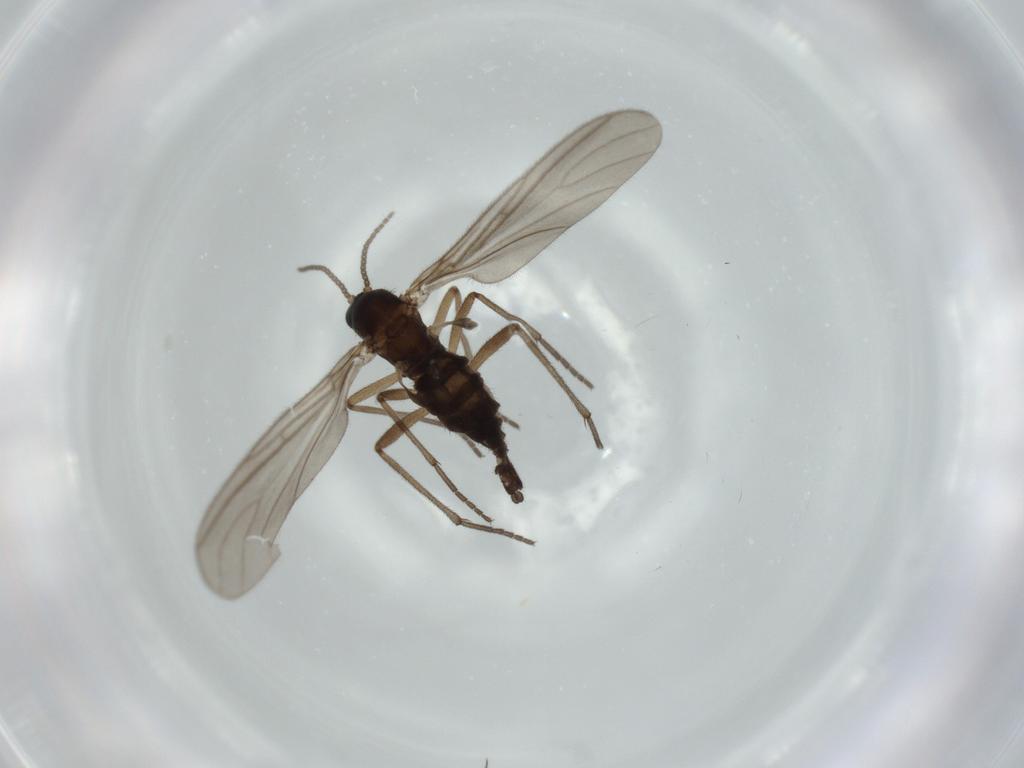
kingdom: Animalia
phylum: Arthropoda
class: Insecta
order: Diptera
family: Sciaridae
